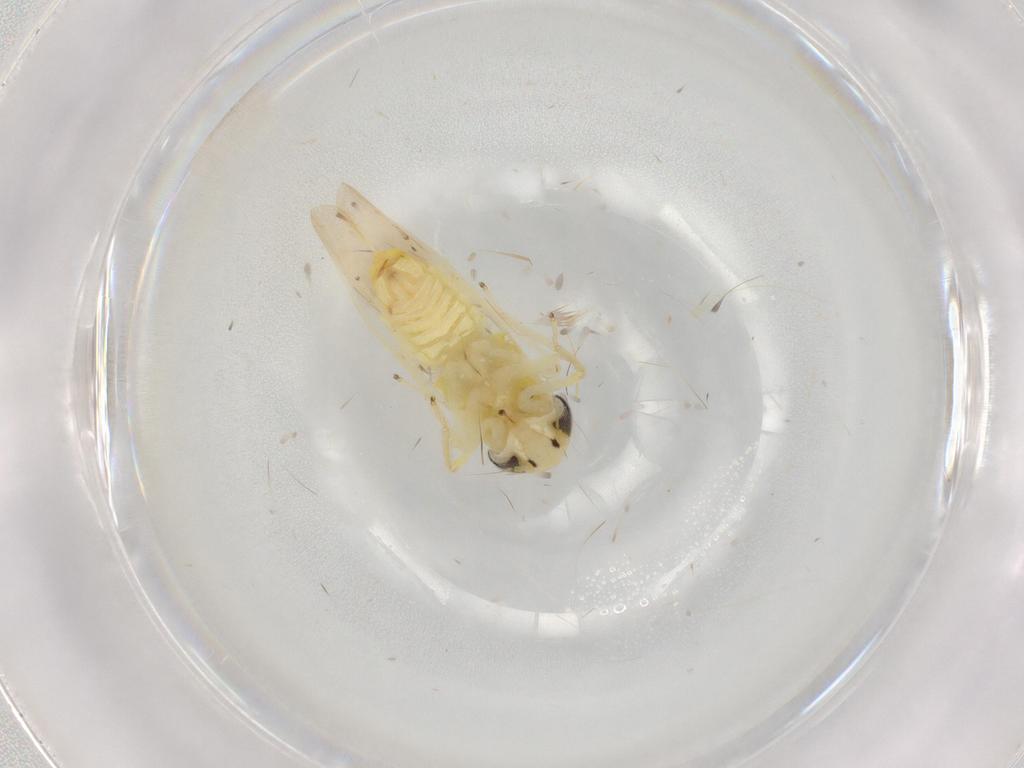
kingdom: Animalia
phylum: Arthropoda
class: Insecta
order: Hemiptera
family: Cicadellidae
